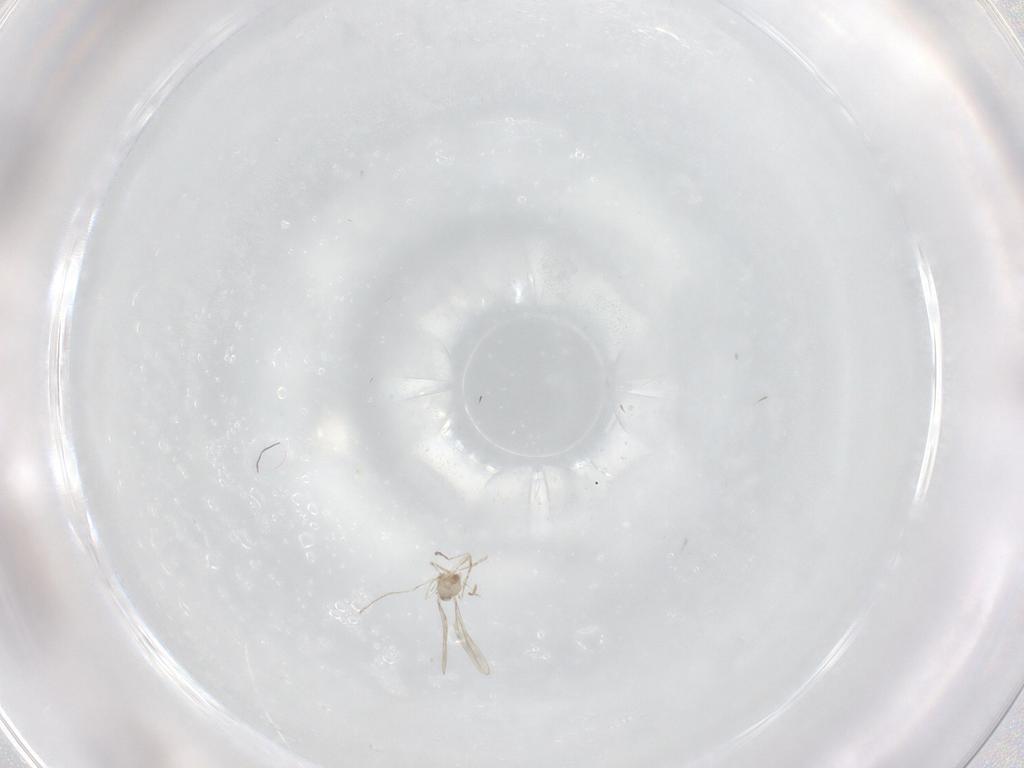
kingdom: Animalia
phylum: Arthropoda
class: Insecta
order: Diptera
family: Cecidomyiidae
